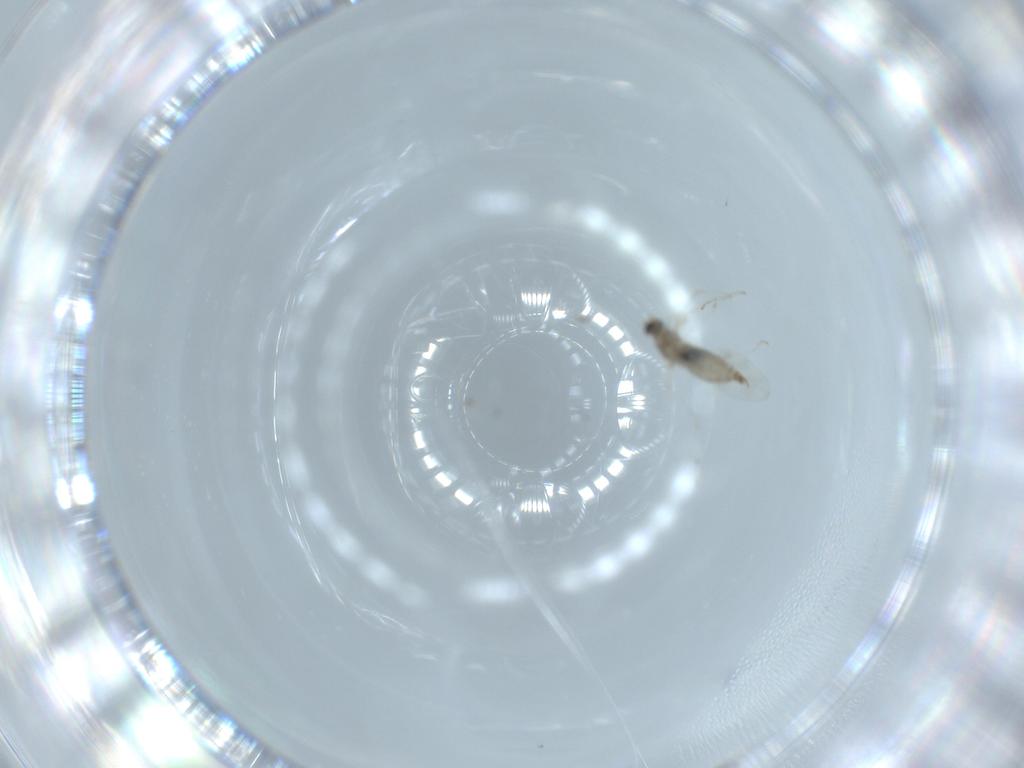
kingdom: Animalia
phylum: Arthropoda
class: Insecta
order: Diptera
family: Cecidomyiidae
